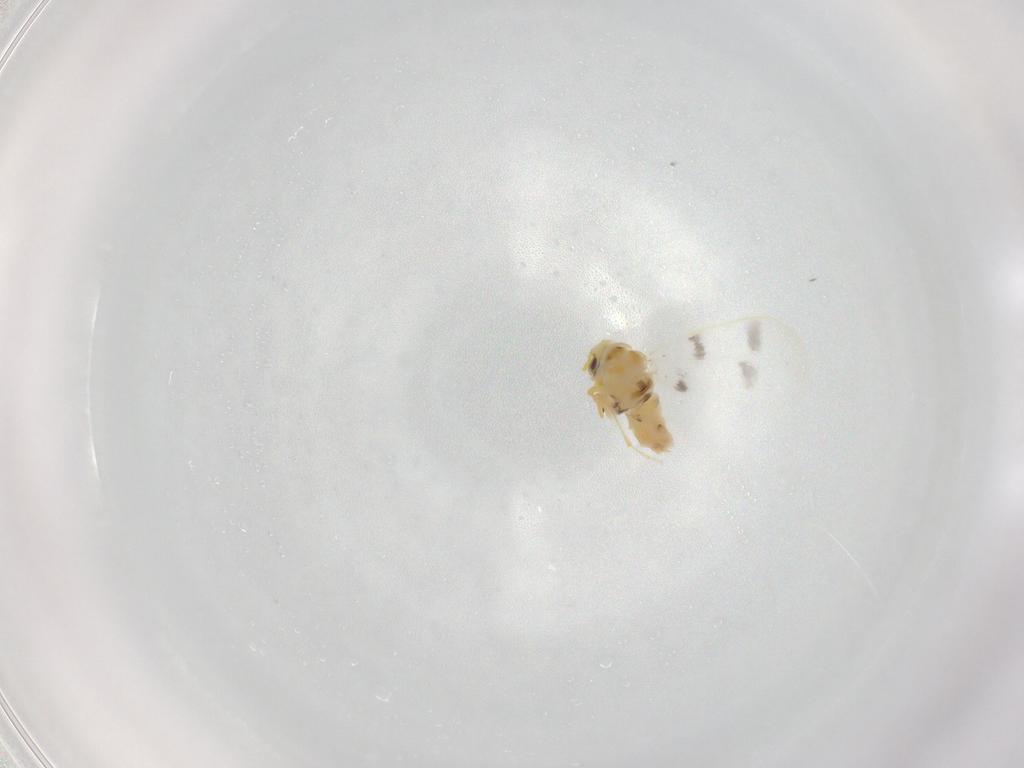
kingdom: Animalia
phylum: Arthropoda
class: Insecta
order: Hemiptera
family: Aleyrodidae
